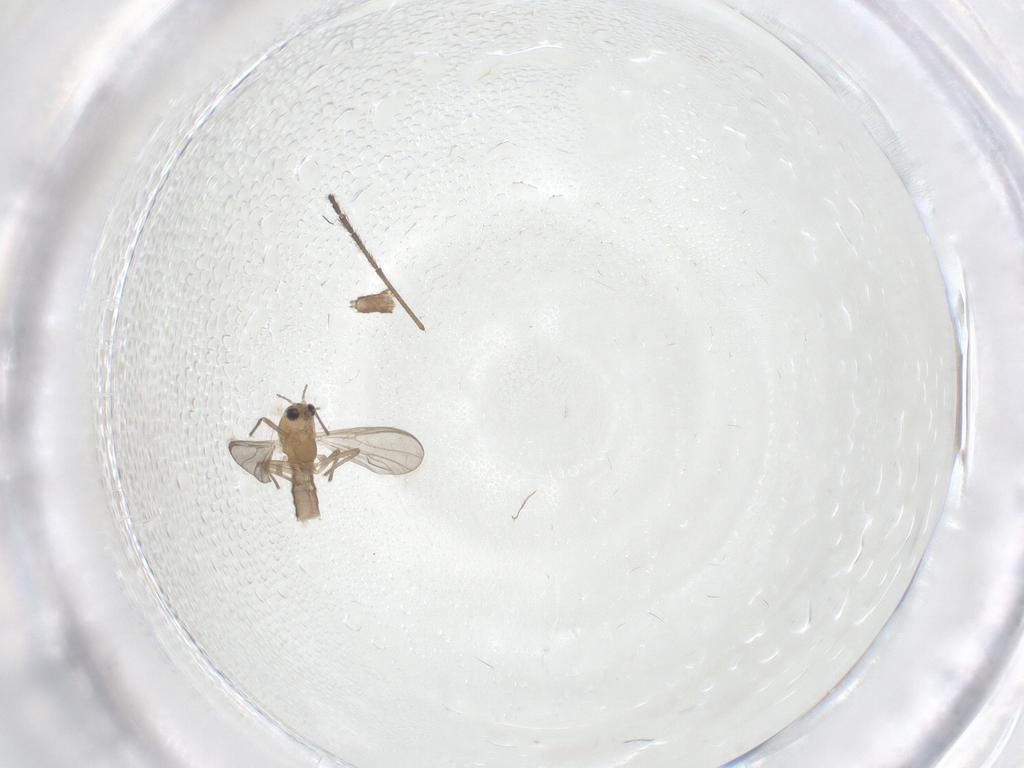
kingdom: Animalia
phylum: Arthropoda
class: Insecta
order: Diptera
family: Chironomidae
